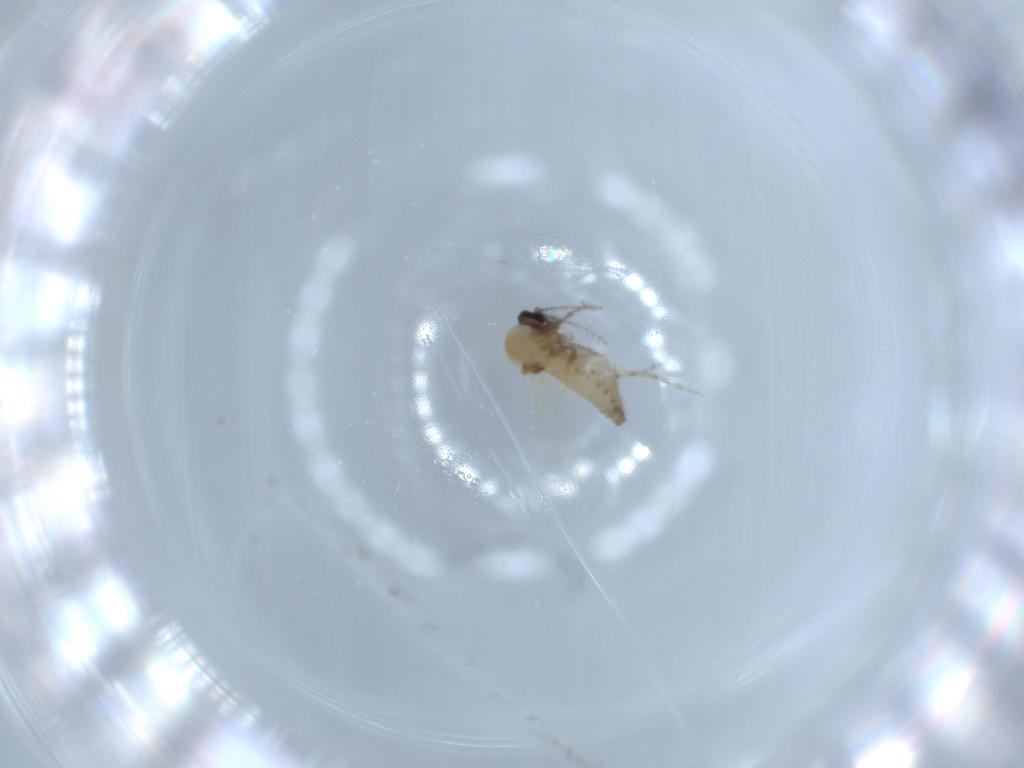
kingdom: Animalia
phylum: Arthropoda
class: Insecta
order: Diptera
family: Ceratopogonidae
